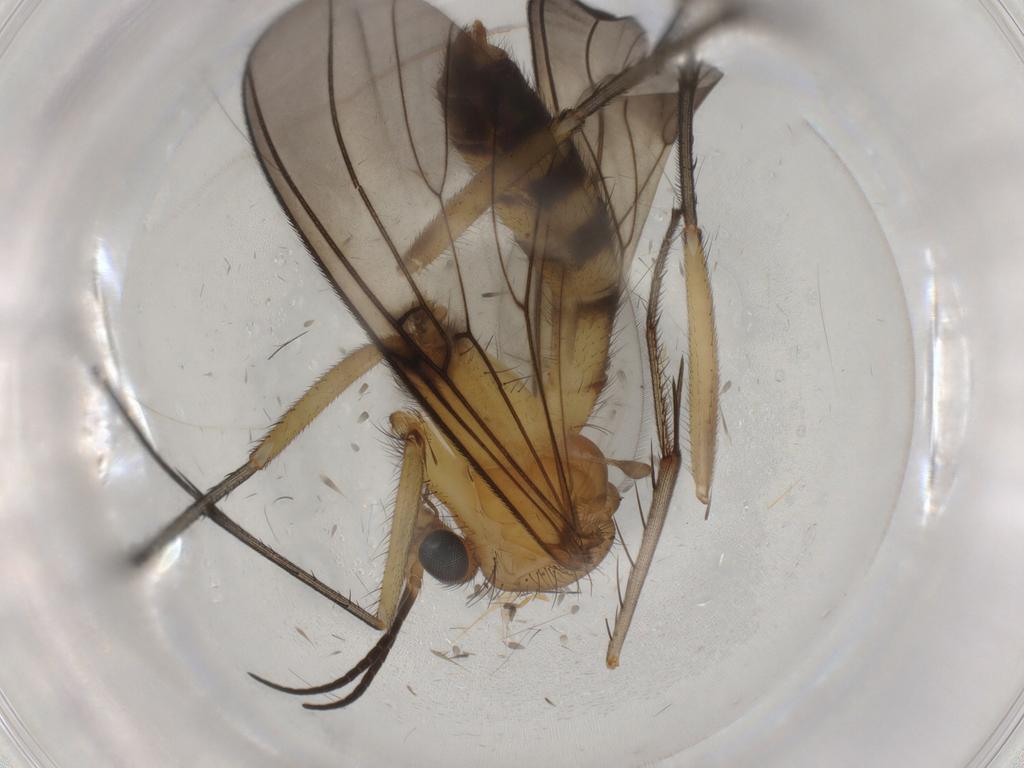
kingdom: Animalia
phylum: Arthropoda
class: Insecta
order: Diptera
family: Mycetophilidae
